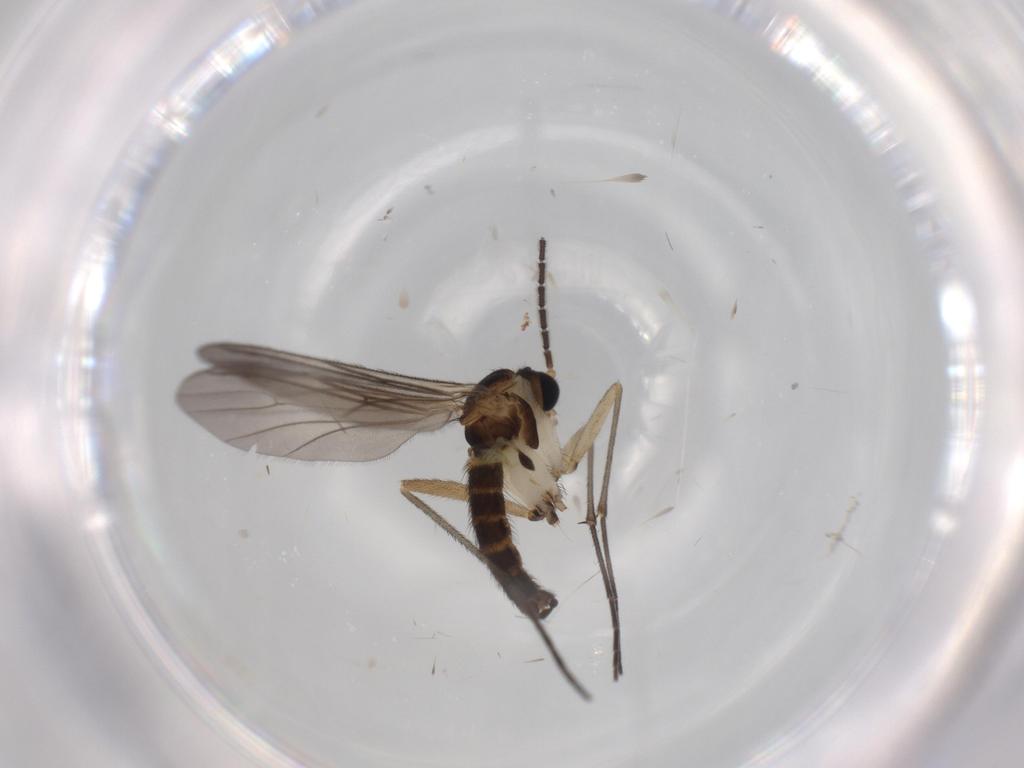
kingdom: Animalia
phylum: Arthropoda
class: Insecta
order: Diptera
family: Sciaridae
